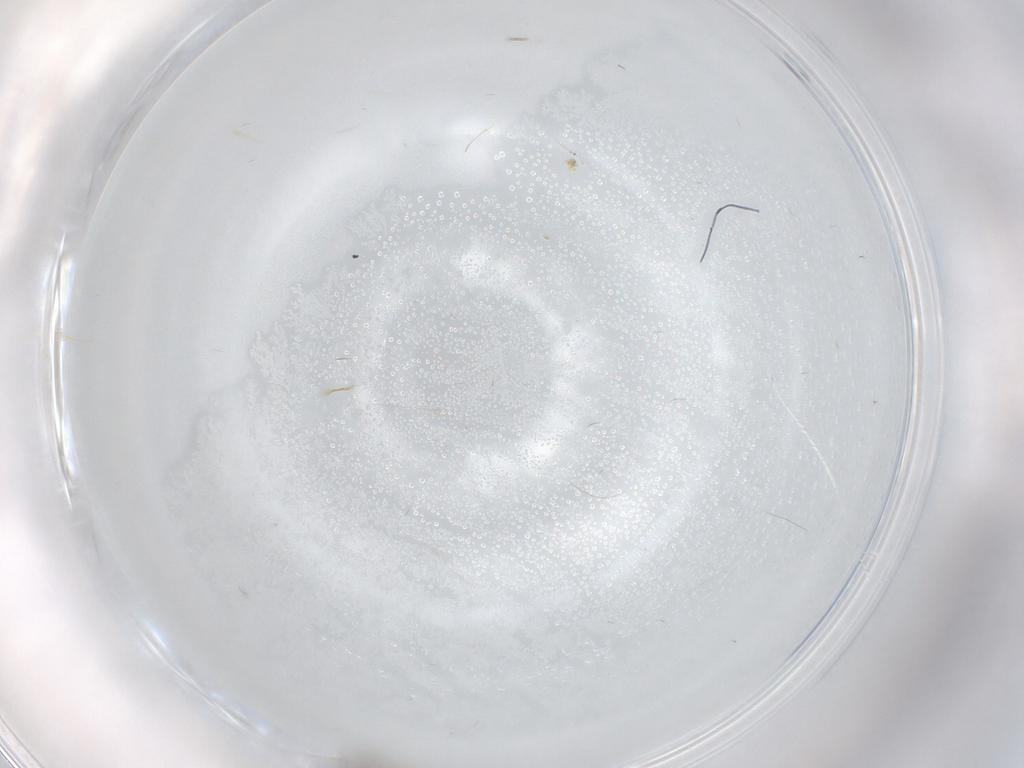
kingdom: Animalia
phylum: Arthropoda
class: Insecta
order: Diptera
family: Chironomidae
